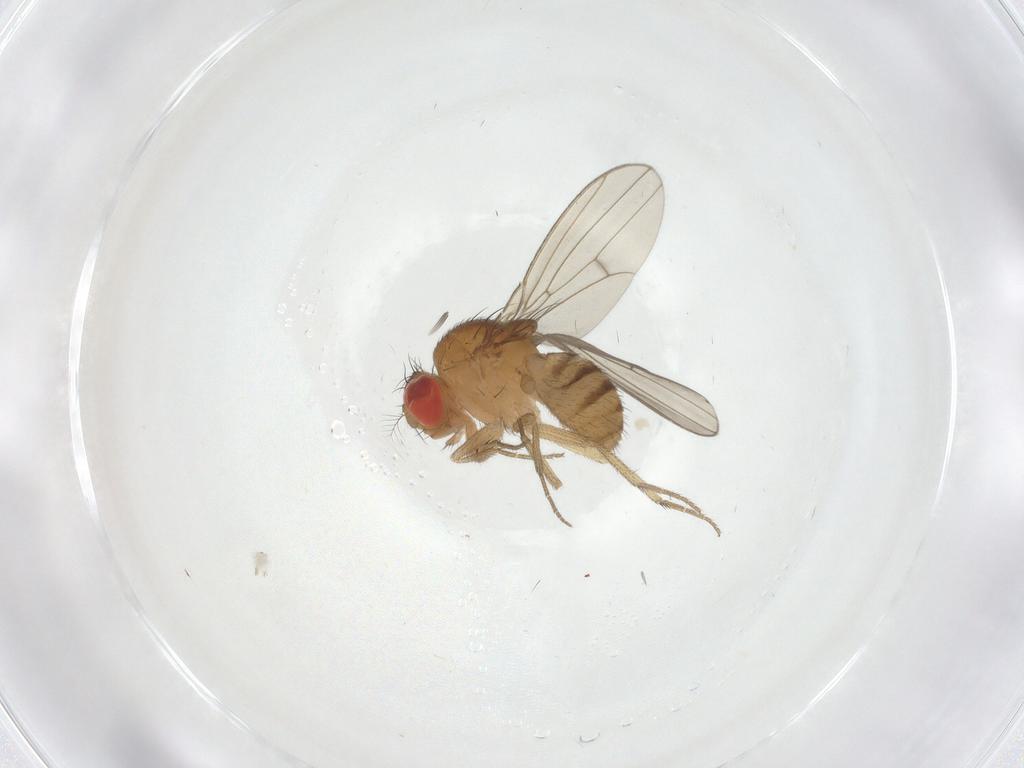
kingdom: Animalia
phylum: Arthropoda
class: Insecta
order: Diptera
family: Drosophilidae
